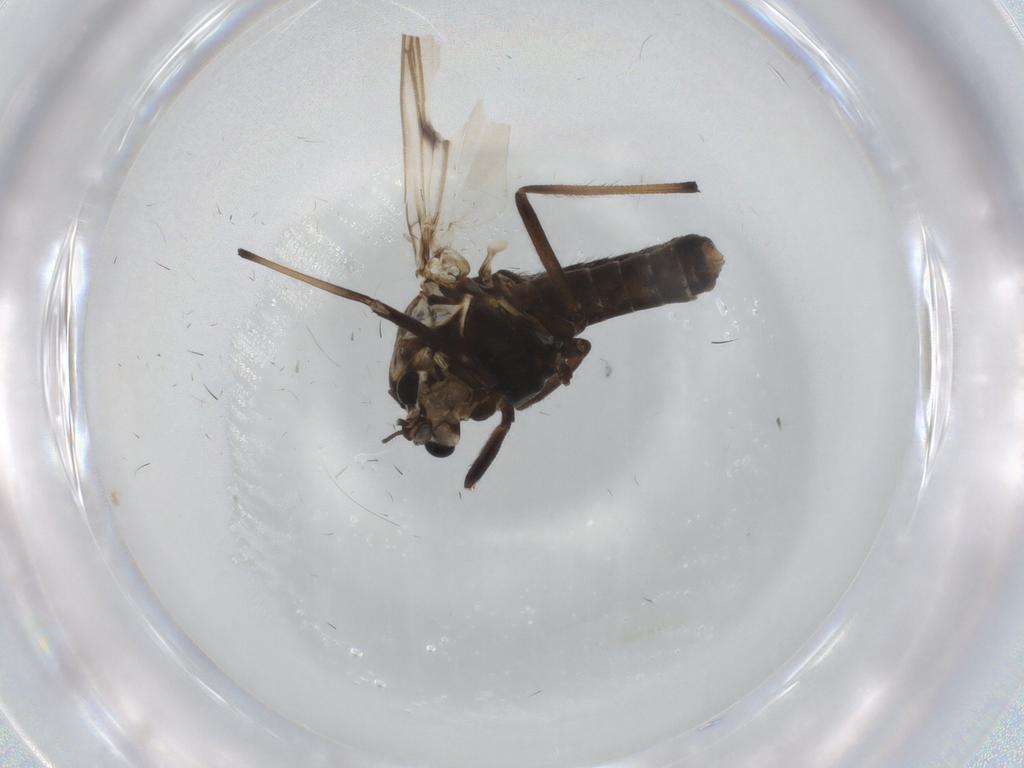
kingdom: Animalia
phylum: Arthropoda
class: Insecta
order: Diptera
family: Chironomidae
